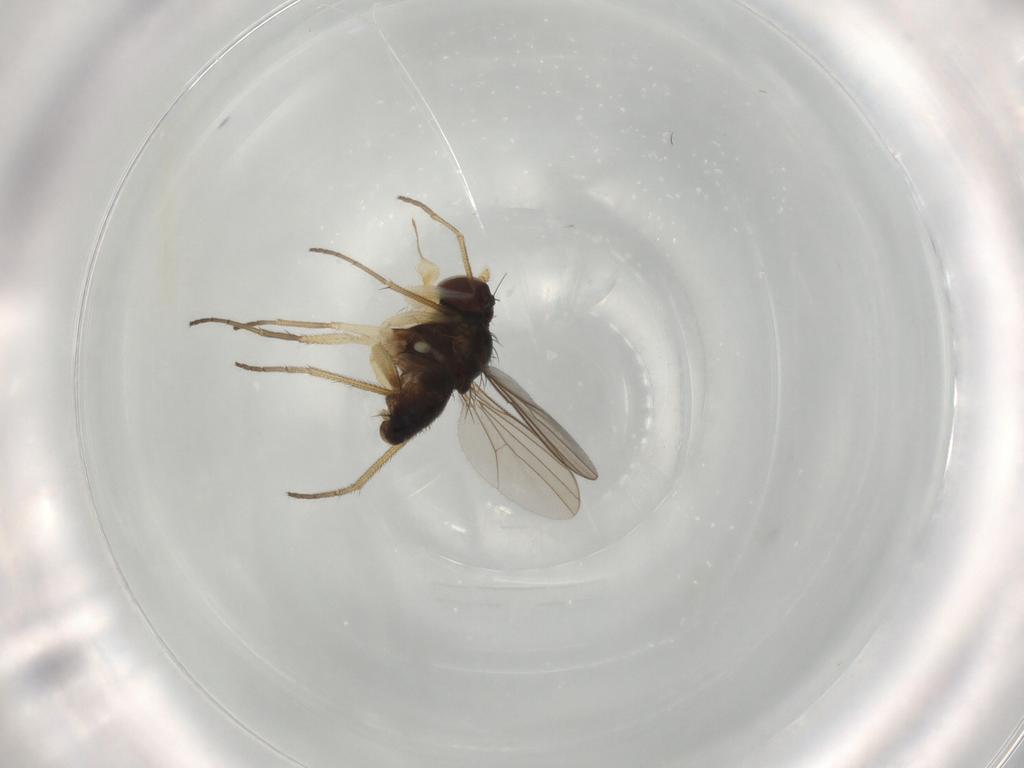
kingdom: Animalia
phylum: Arthropoda
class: Insecta
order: Diptera
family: Dolichopodidae
